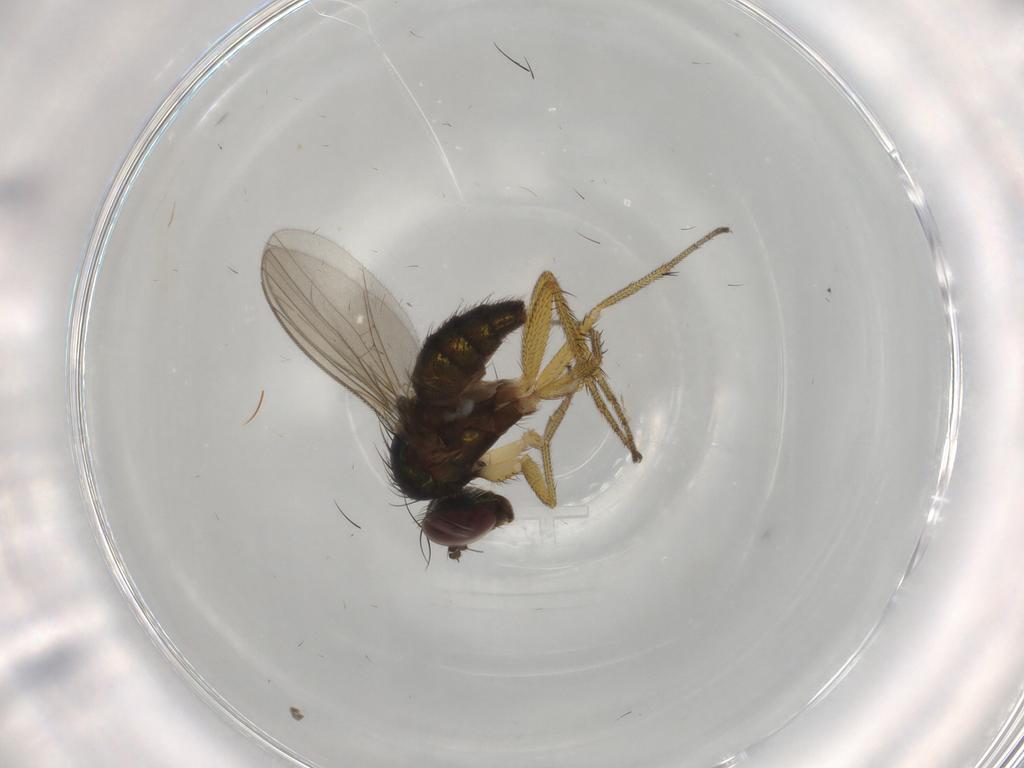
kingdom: Animalia
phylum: Arthropoda
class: Insecta
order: Diptera
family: Dolichopodidae
